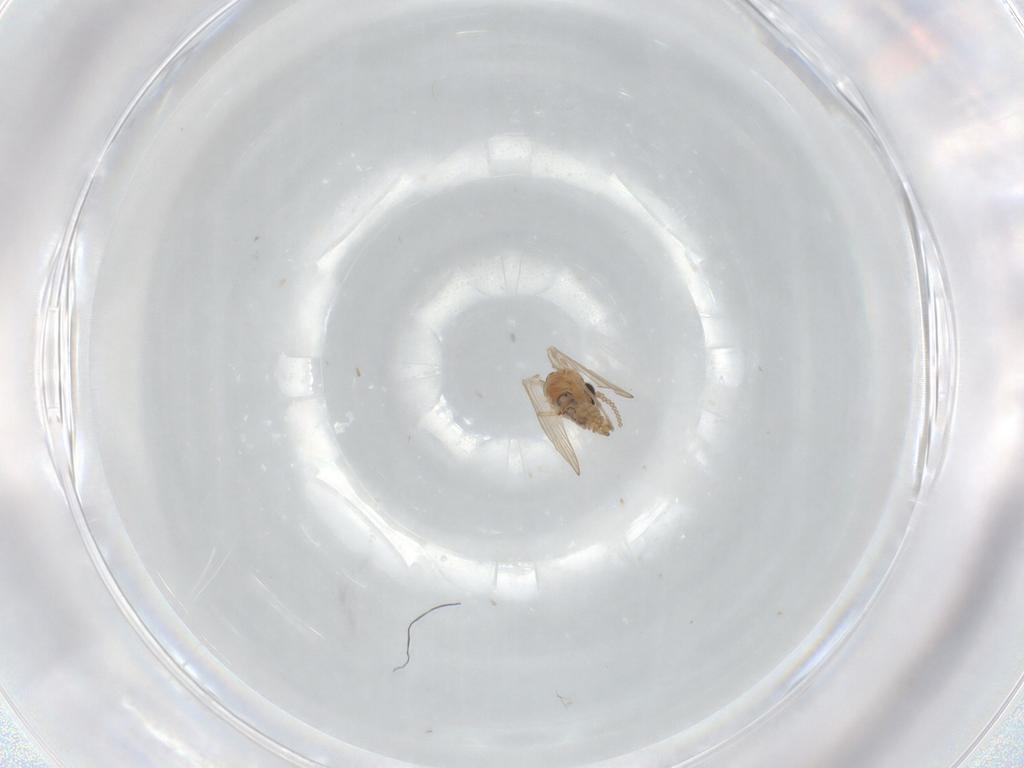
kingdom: Animalia
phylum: Arthropoda
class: Insecta
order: Diptera
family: Psychodidae
